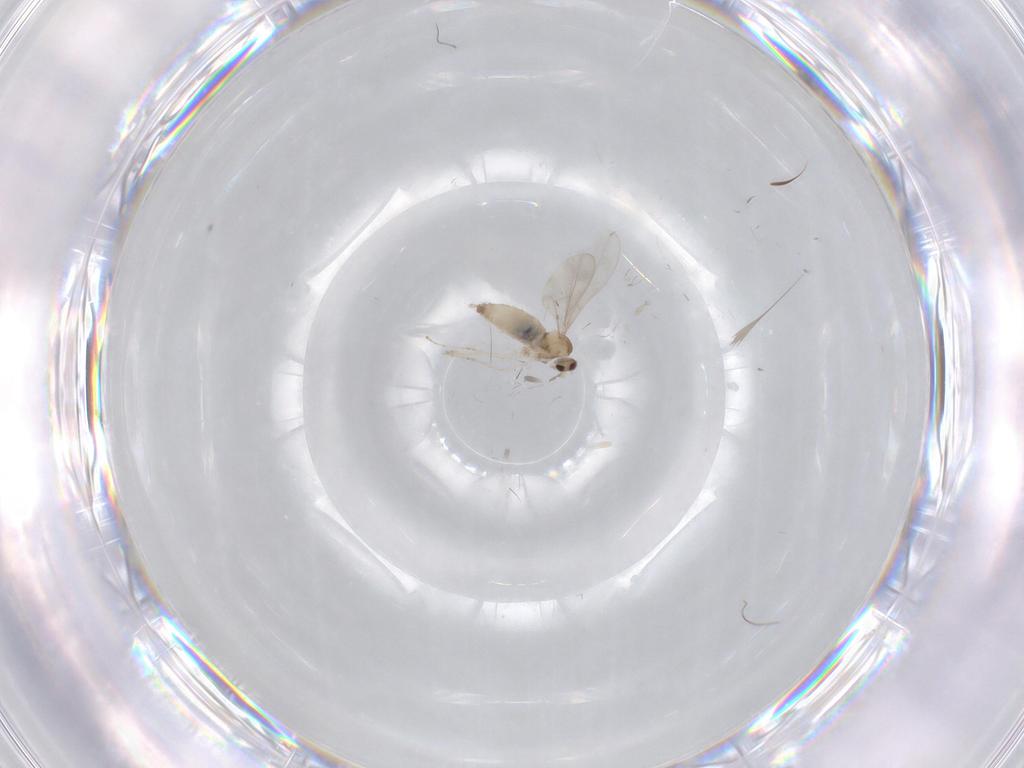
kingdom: Animalia
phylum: Arthropoda
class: Insecta
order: Diptera
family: Cecidomyiidae
